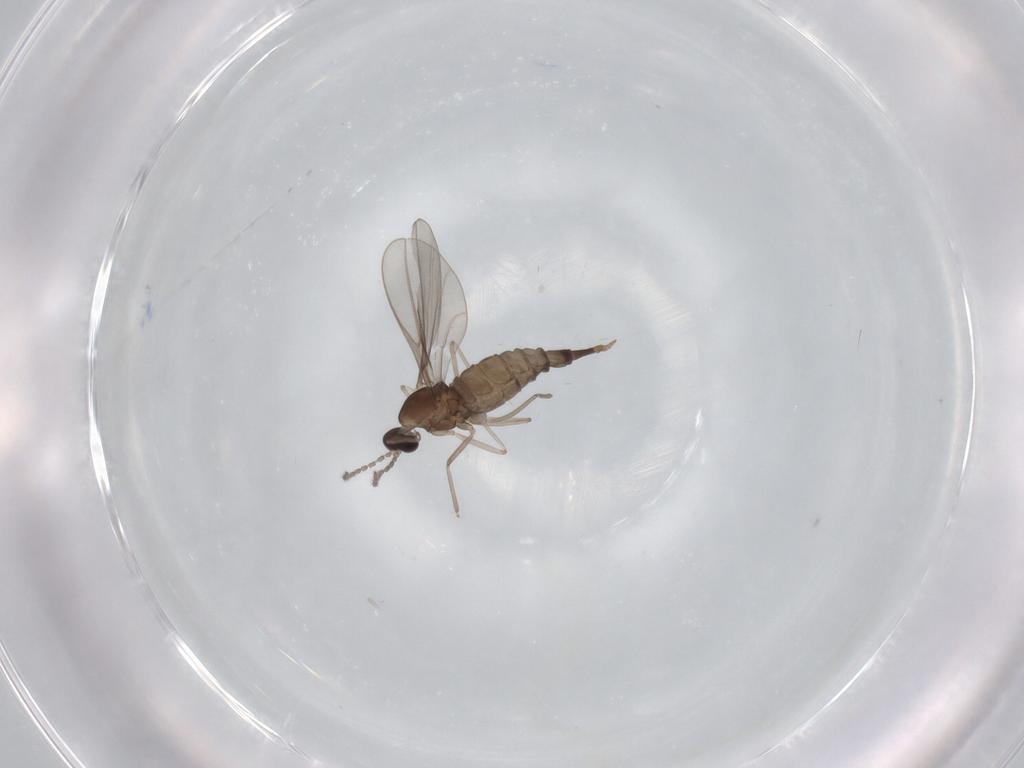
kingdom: Animalia
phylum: Arthropoda
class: Insecta
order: Diptera
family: Cecidomyiidae
